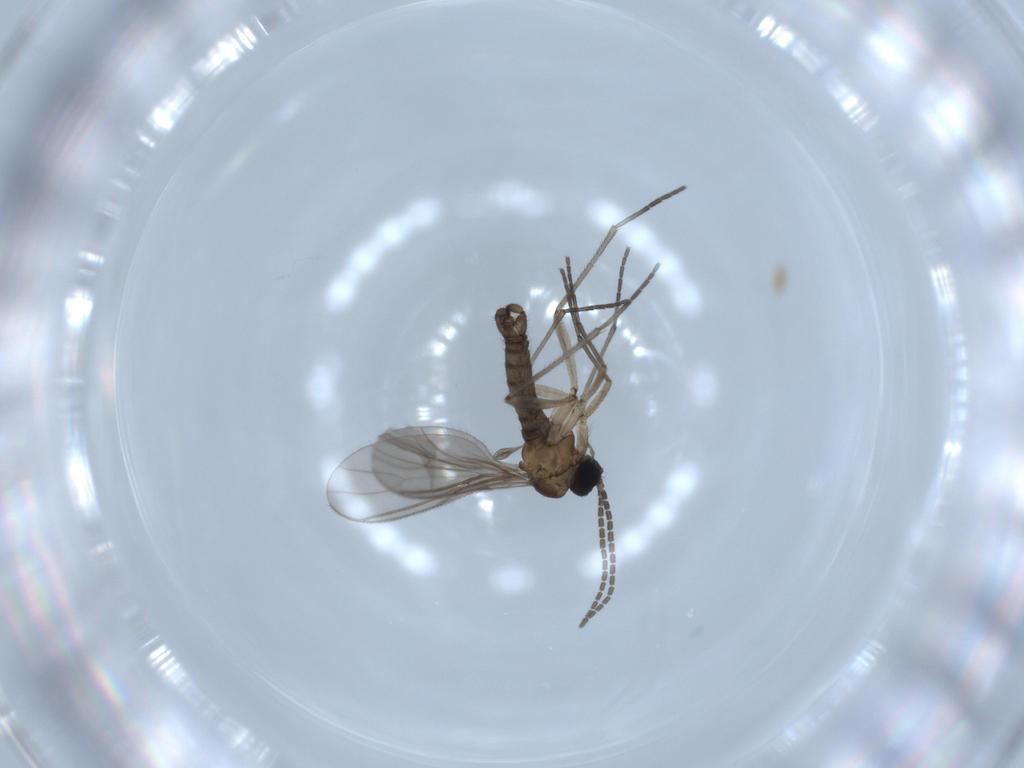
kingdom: Animalia
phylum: Arthropoda
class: Insecta
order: Diptera
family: Sciaridae
